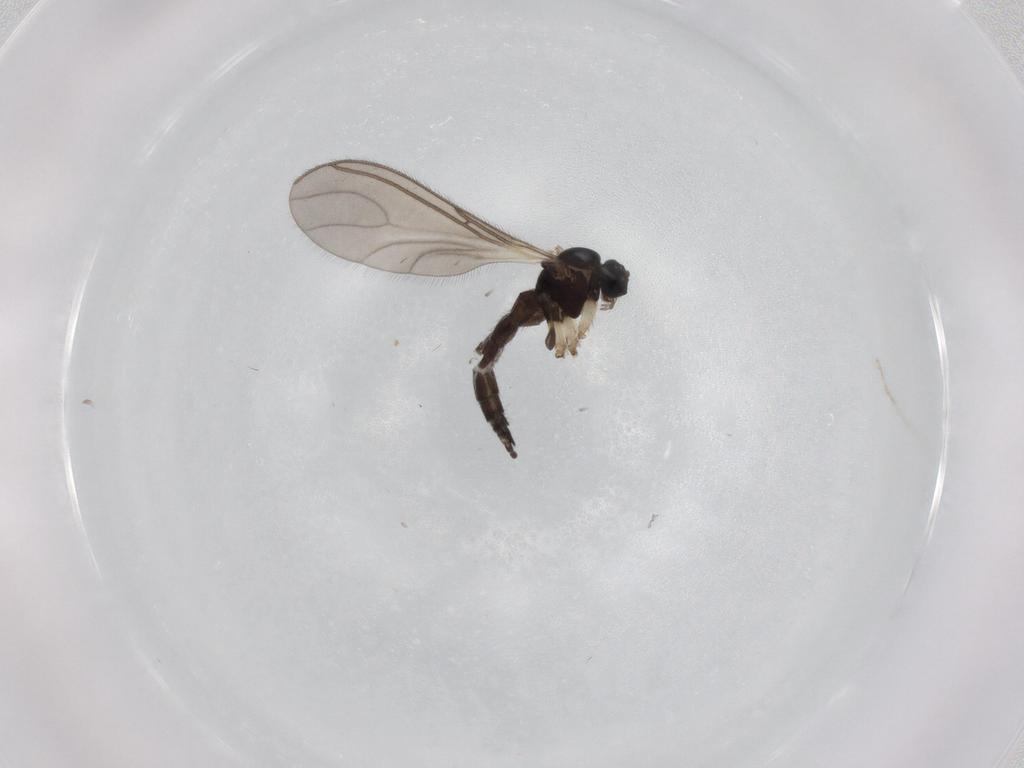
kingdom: Animalia
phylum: Arthropoda
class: Insecta
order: Diptera
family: Sciaridae
